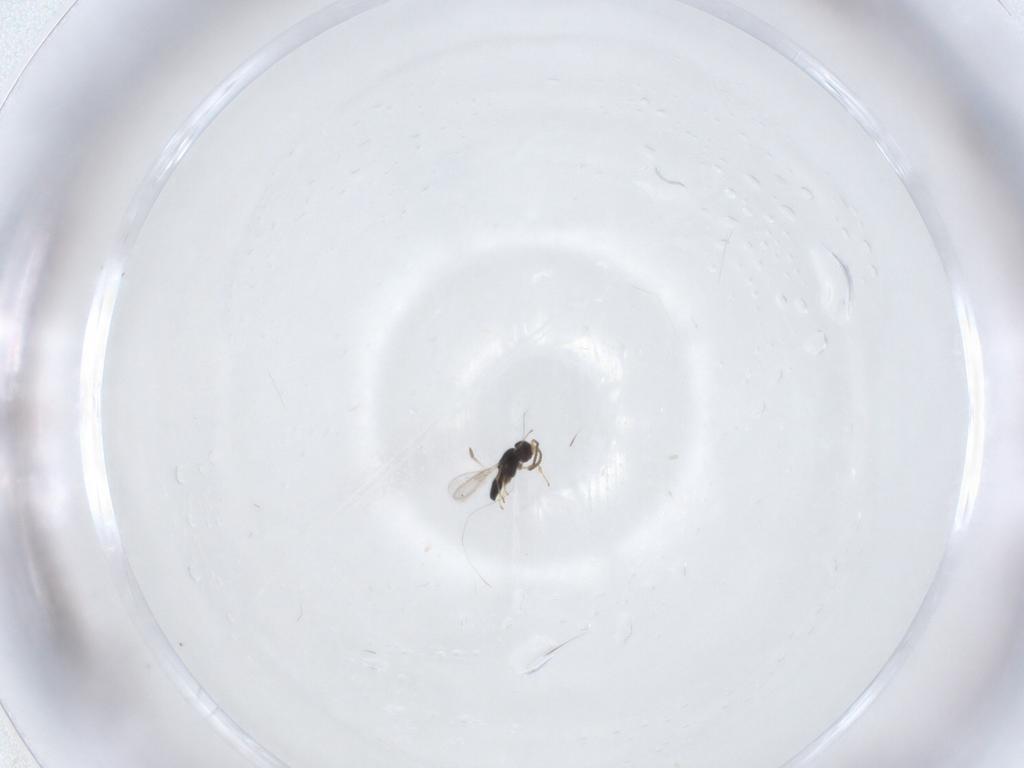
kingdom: Animalia
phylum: Arthropoda
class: Insecta
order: Hymenoptera
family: Scelionidae
